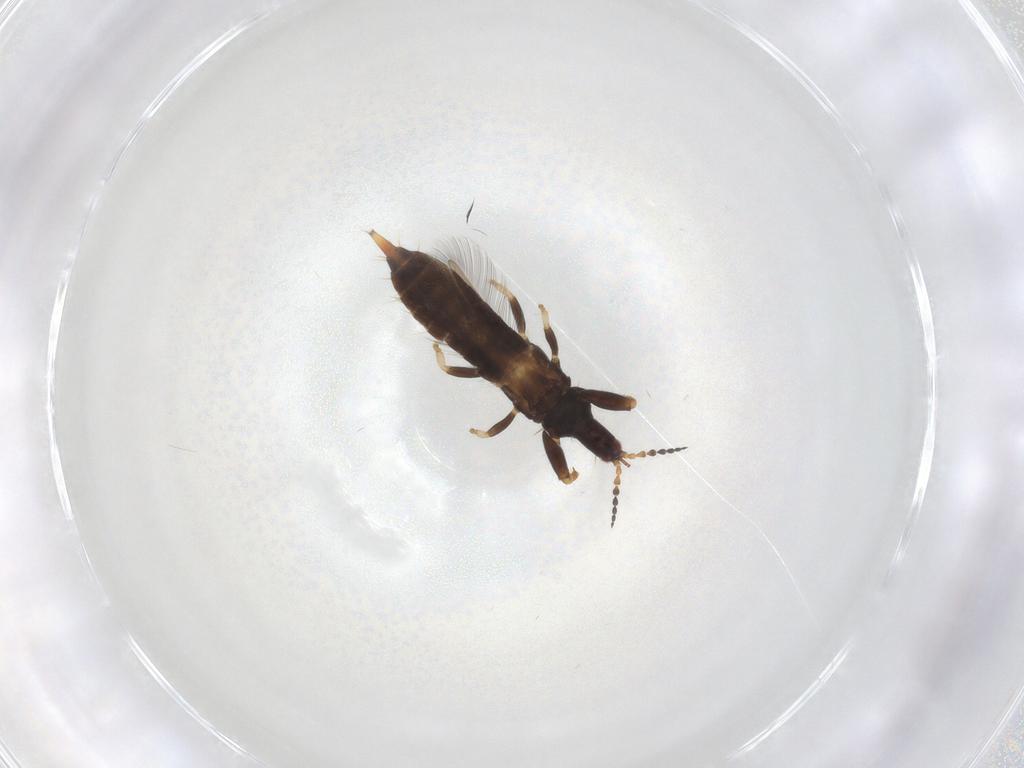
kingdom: Animalia
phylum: Arthropoda
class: Insecta
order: Thysanoptera
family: Phlaeothripidae
